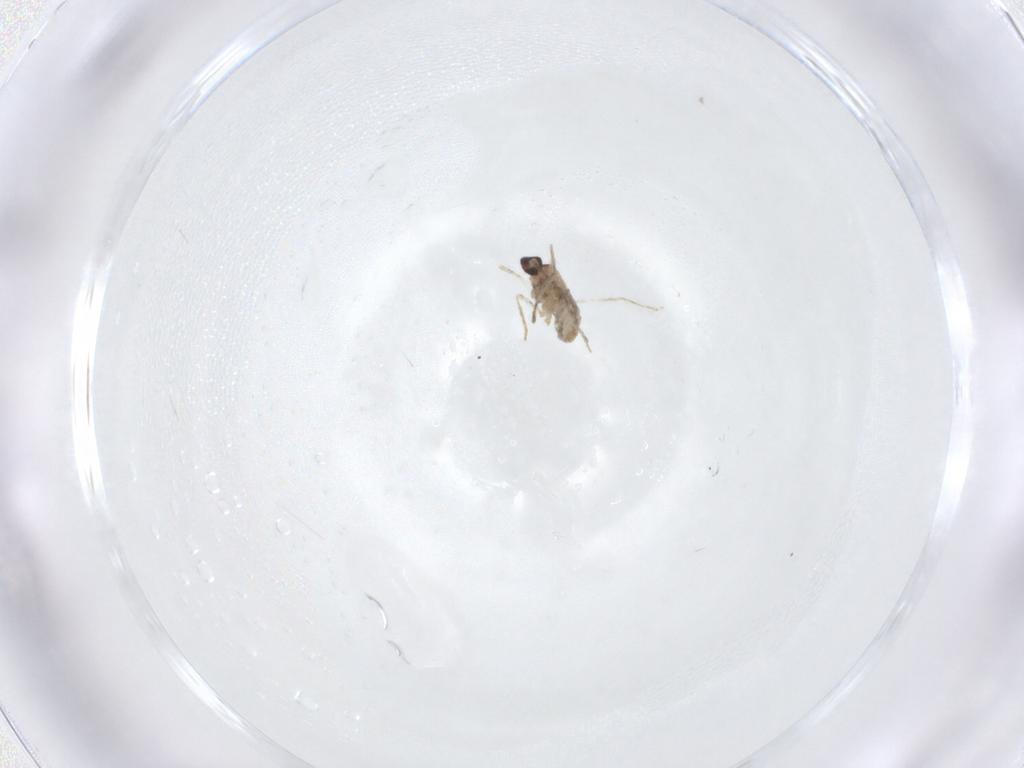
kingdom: Animalia
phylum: Arthropoda
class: Insecta
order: Diptera
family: Cecidomyiidae
